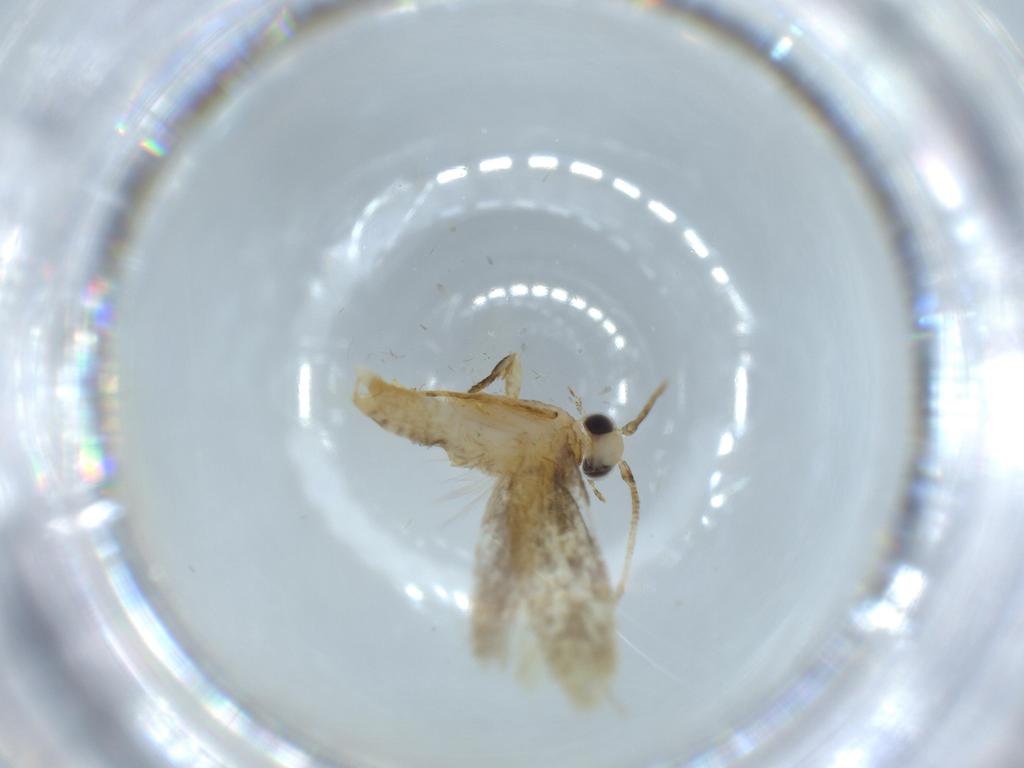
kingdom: Animalia
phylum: Arthropoda
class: Insecta
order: Lepidoptera
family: Tineidae
